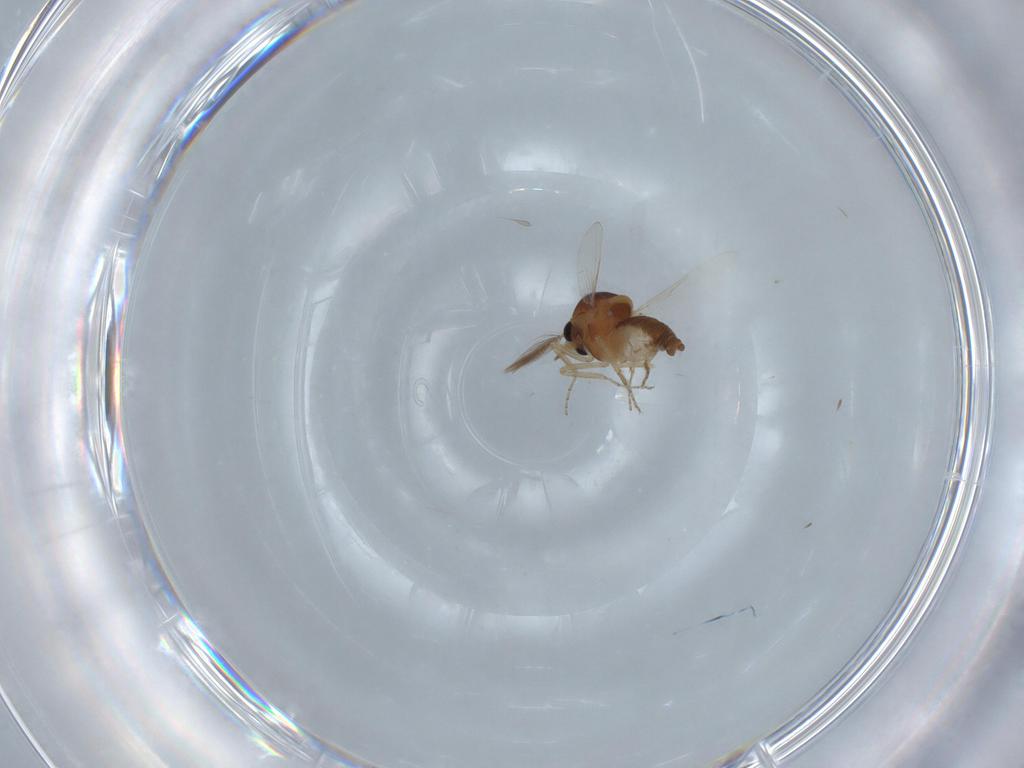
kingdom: Animalia
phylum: Arthropoda
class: Insecta
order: Diptera
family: Ceratopogonidae
